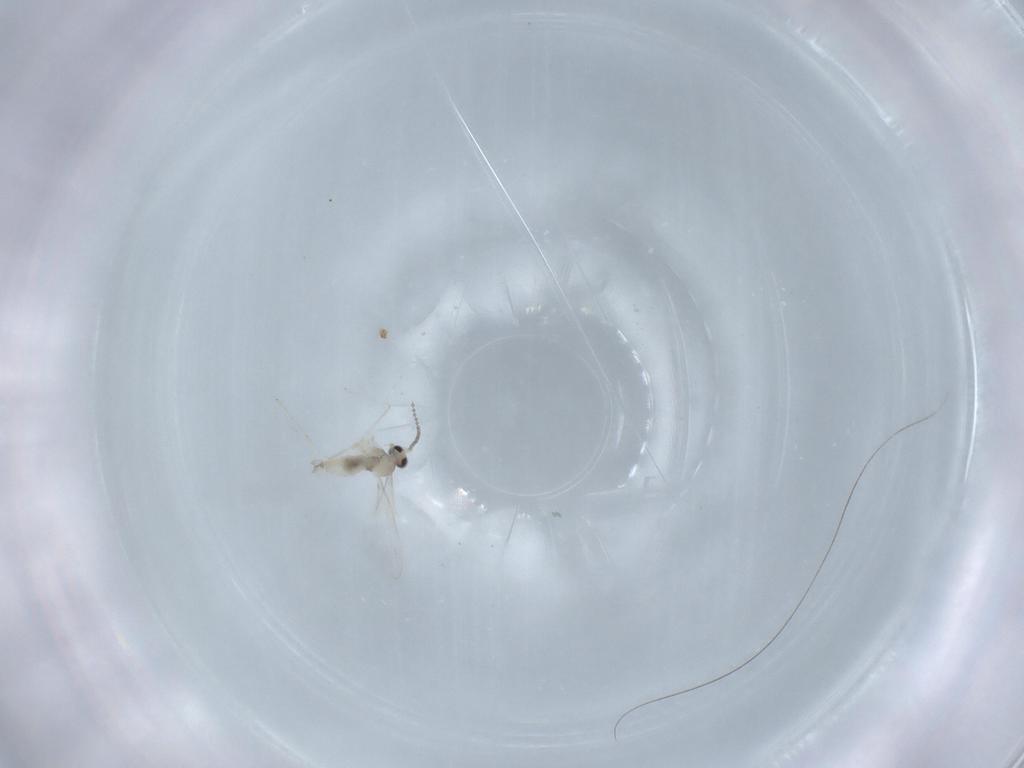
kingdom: Animalia
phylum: Arthropoda
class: Insecta
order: Diptera
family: Cecidomyiidae
